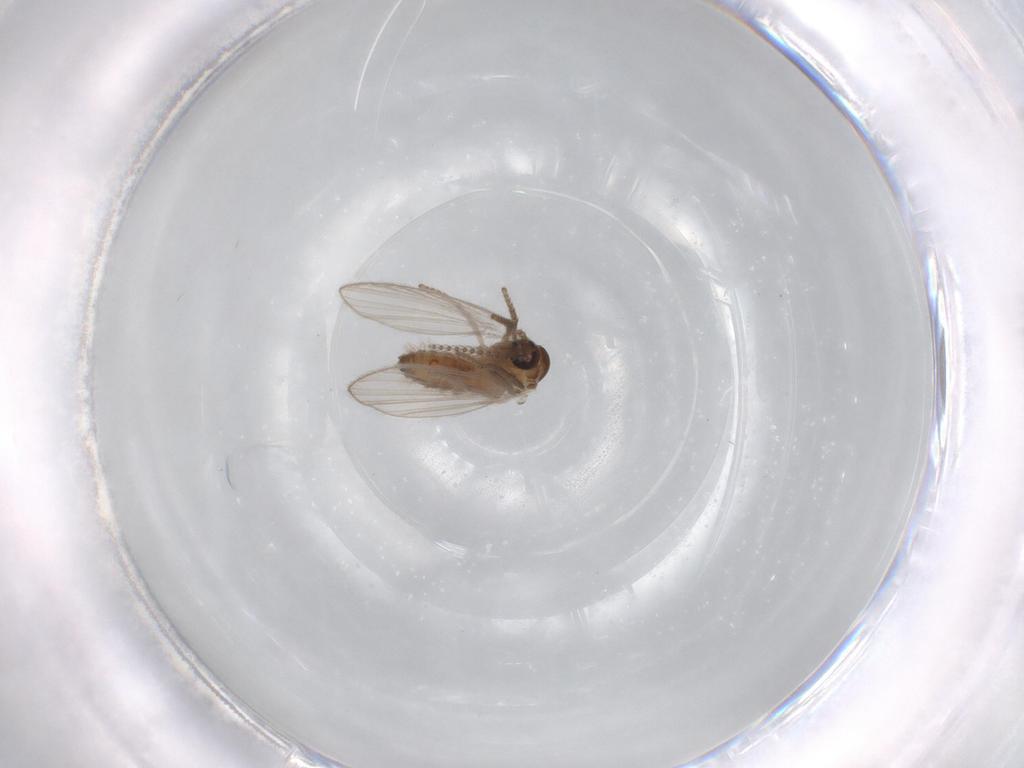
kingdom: Animalia
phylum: Arthropoda
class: Insecta
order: Diptera
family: Psychodidae
